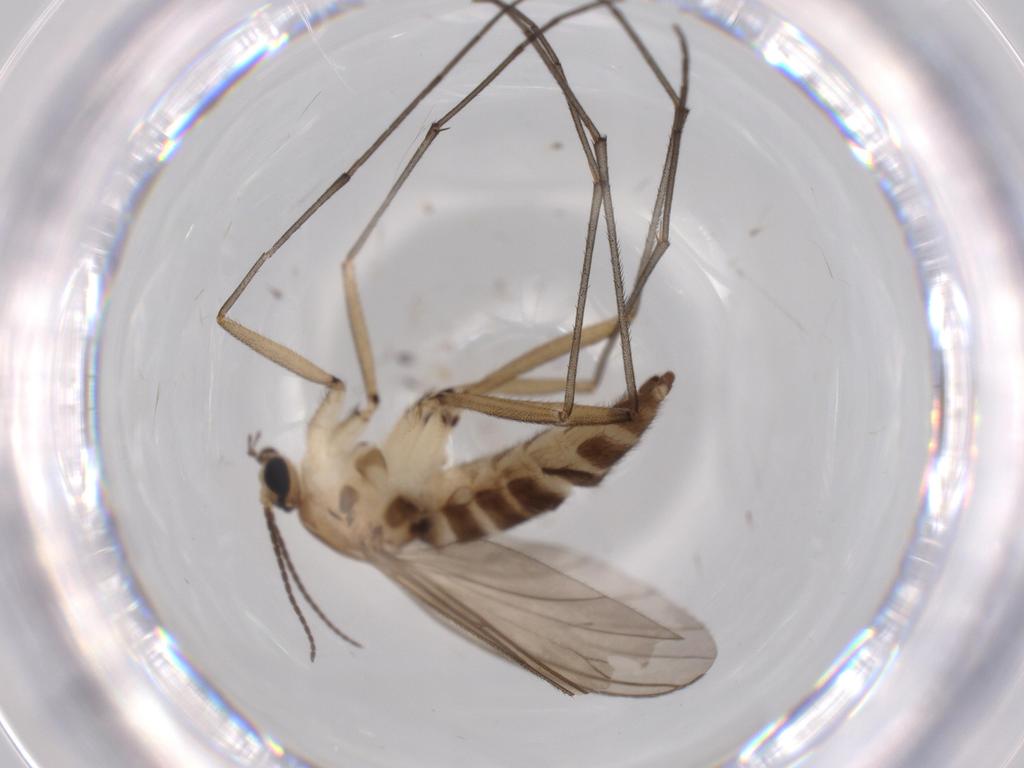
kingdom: Animalia
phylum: Arthropoda
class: Insecta
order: Diptera
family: Sciaridae
